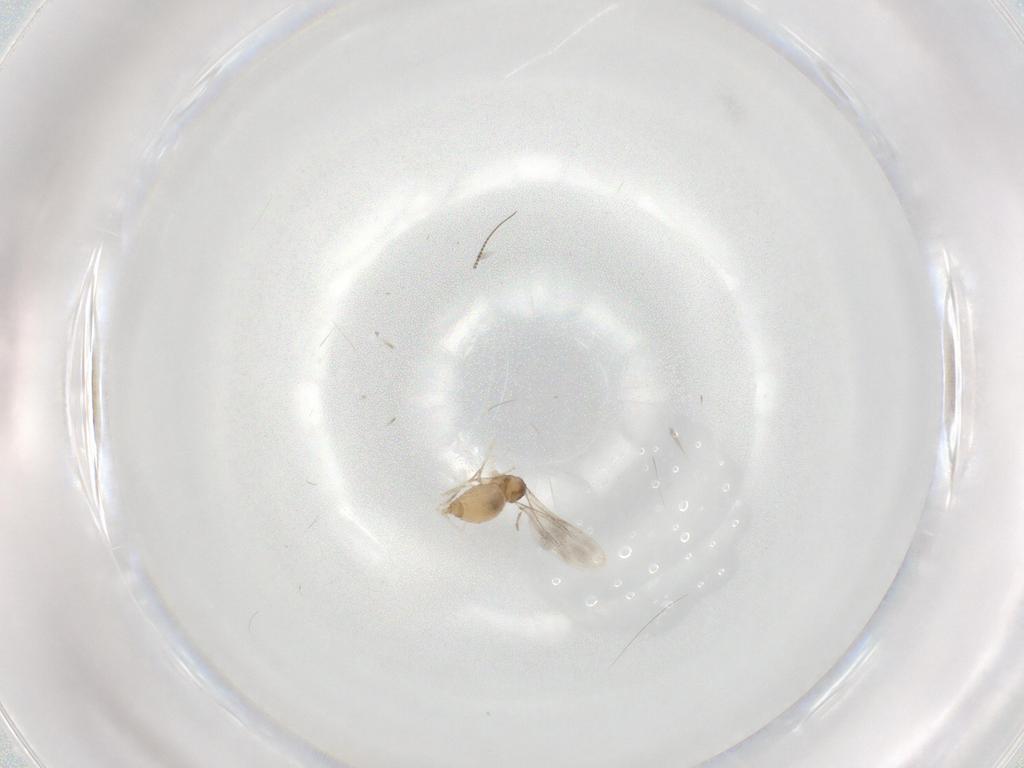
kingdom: Animalia
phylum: Arthropoda
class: Insecta
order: Diptera
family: Cecidomyiidae
